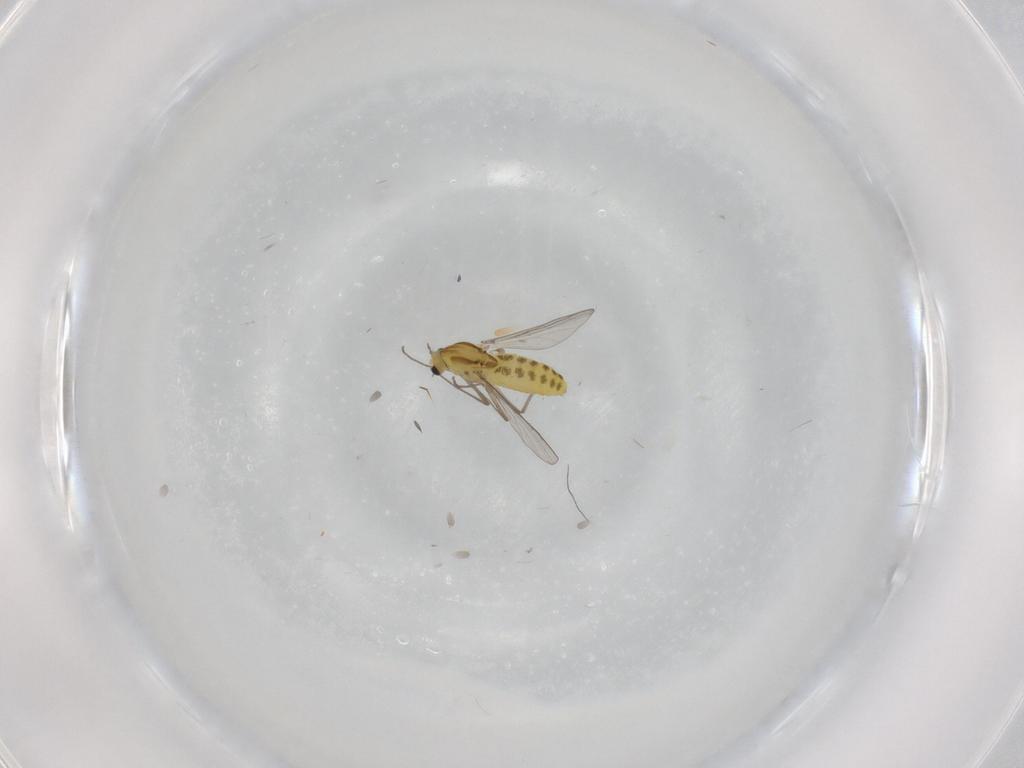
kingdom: Animalia
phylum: Arthropoda
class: Insecta
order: Diptera
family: Chironomidae
